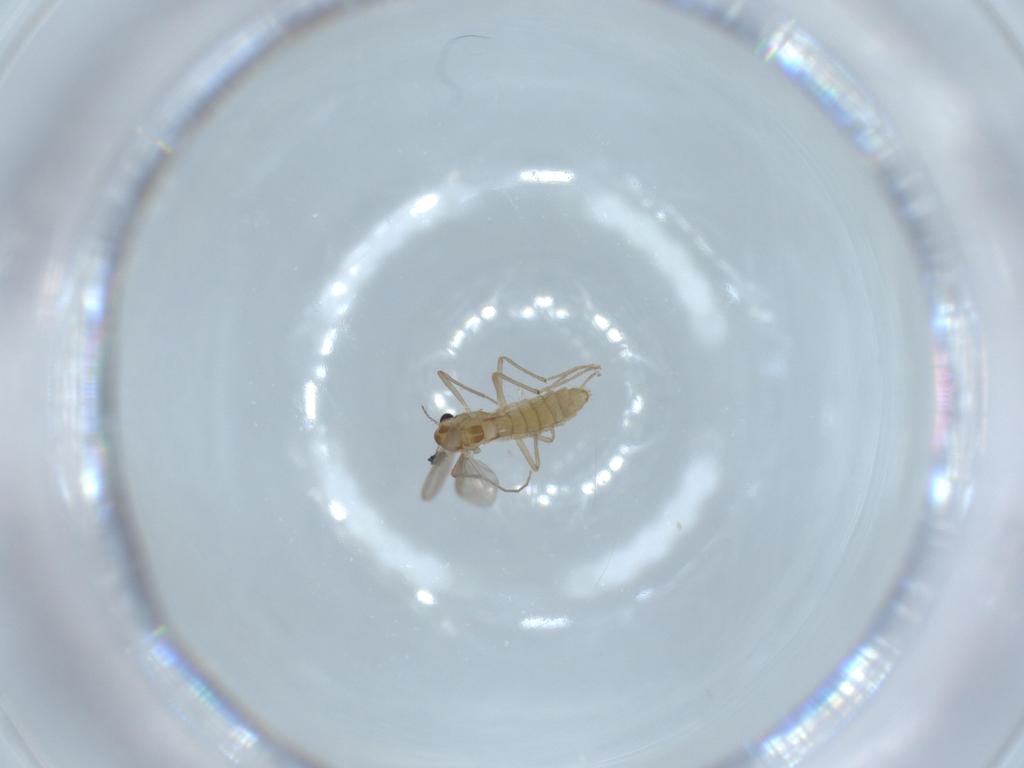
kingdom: Animalia
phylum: Arthropoda
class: Insecta
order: Diptera
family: Chironomidae
